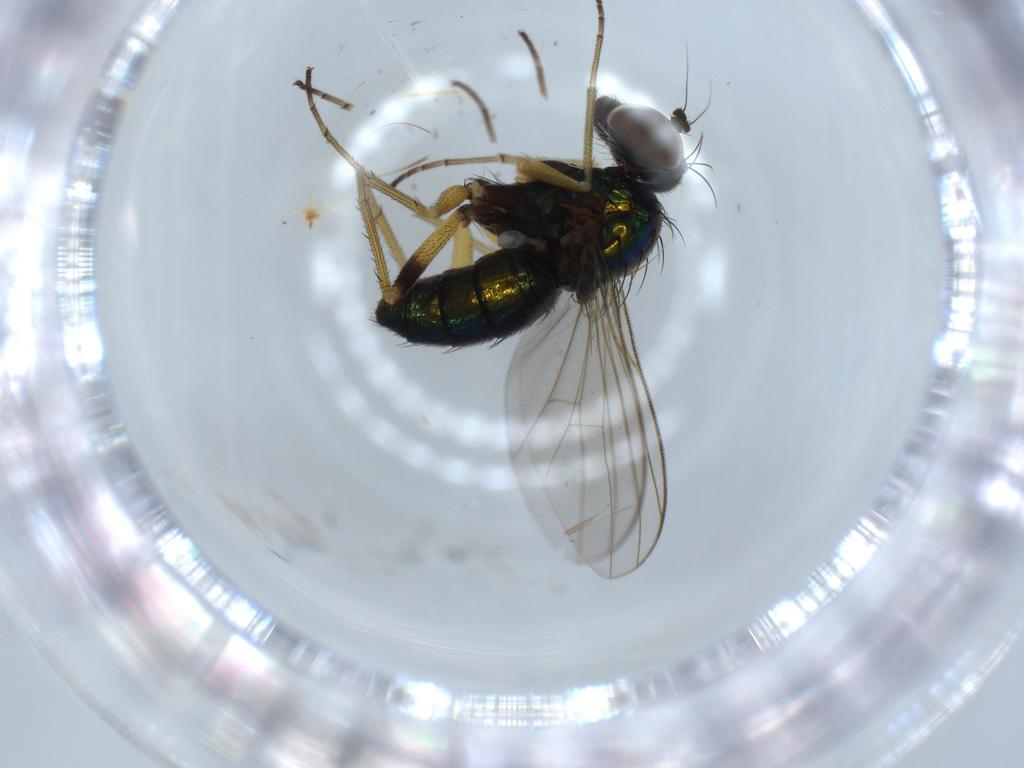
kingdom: Animalia
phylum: Arthropoda
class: Insecta
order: Diptera
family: Dolichopodidae
